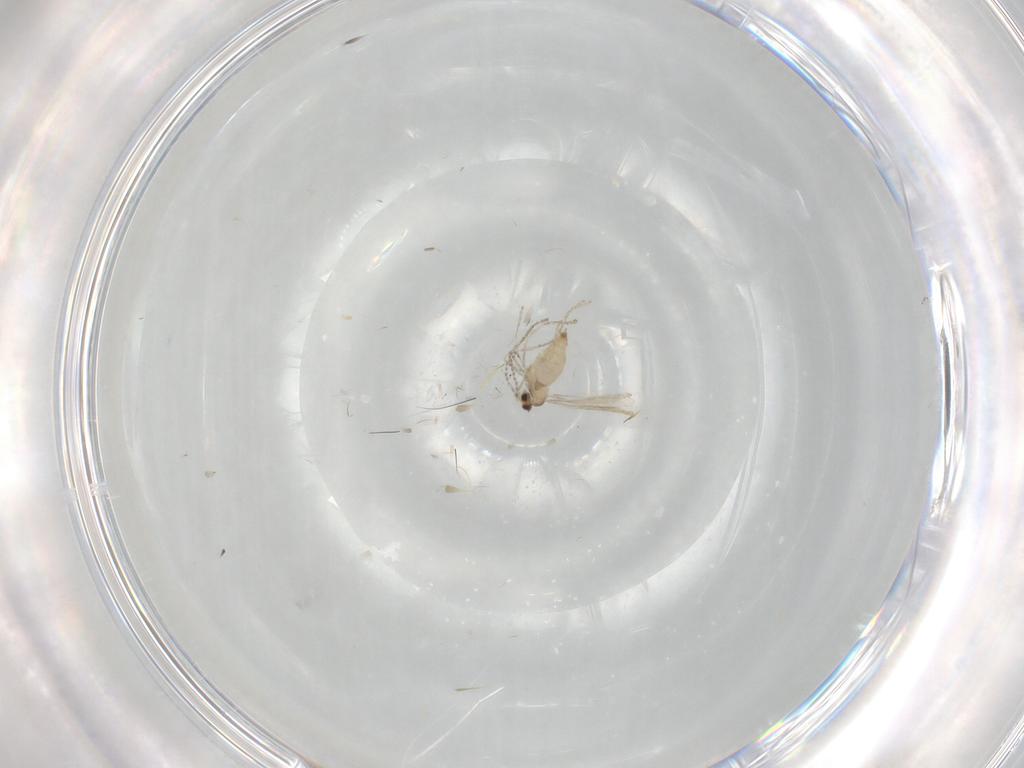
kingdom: Animalia
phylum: Arthropoda
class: Insecta
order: Diptera
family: Cecidomyiidae
